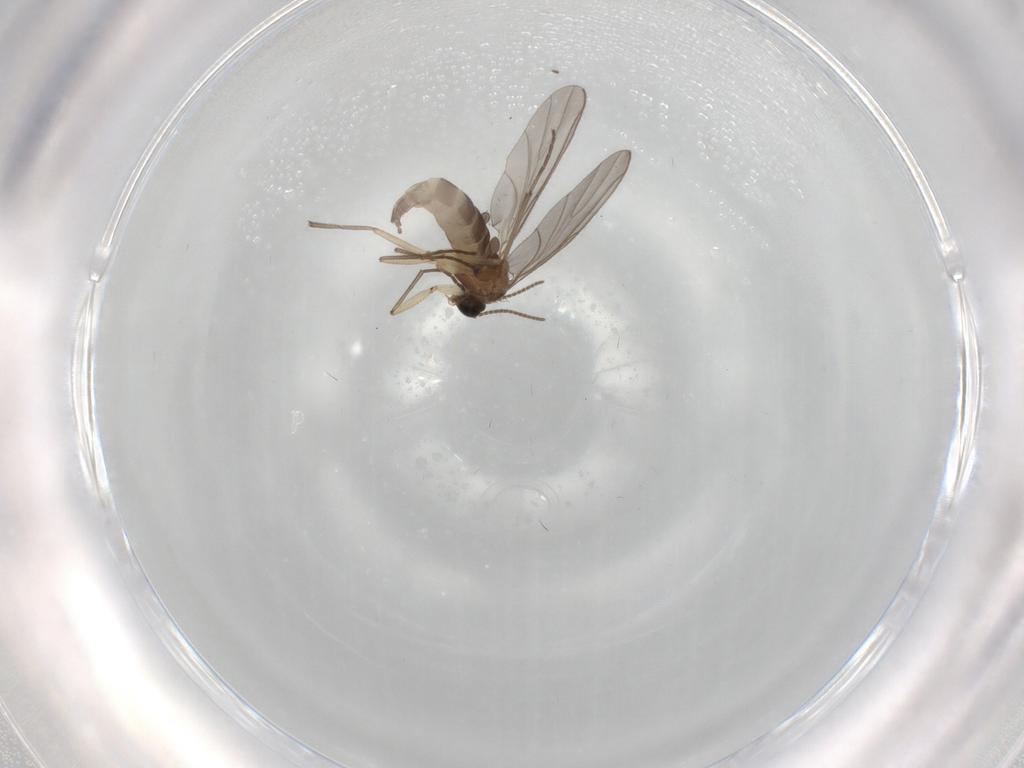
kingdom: Animalia
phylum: Arthropoda
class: Insecta
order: Diptera
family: Sciaridae
